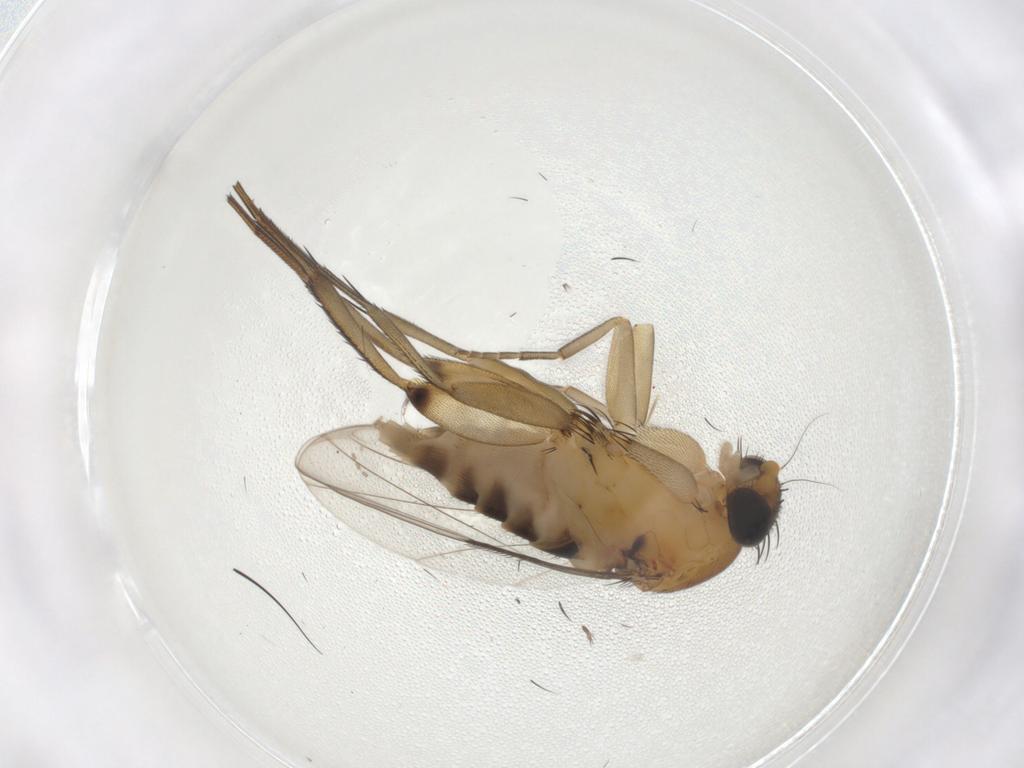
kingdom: Animalia
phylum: Arthropoda
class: Insecta
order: Diptera
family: Phoridae
